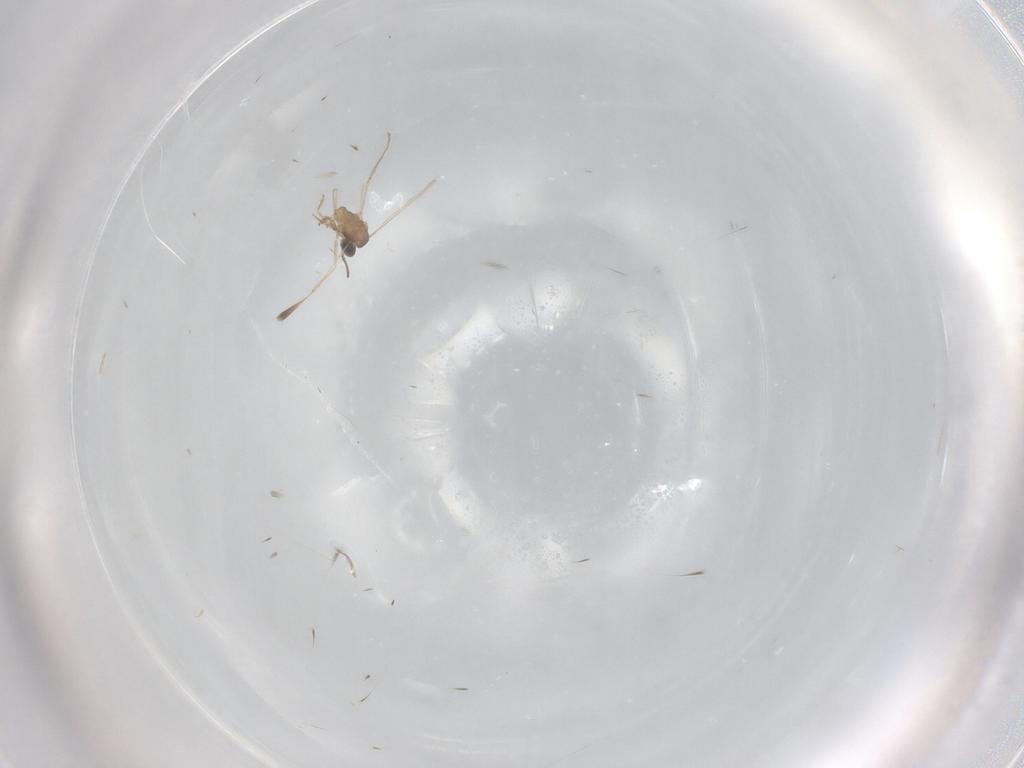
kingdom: Animalia
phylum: Arthropoda
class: Insecta
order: Diptera
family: Cecidomyiidae
